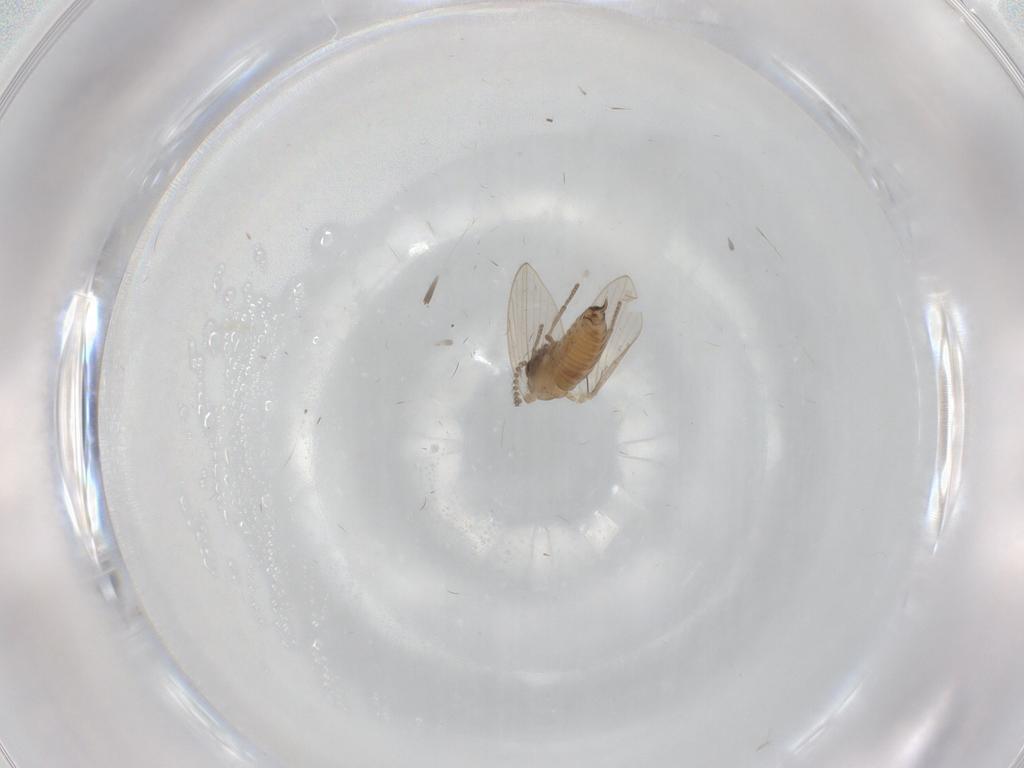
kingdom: Animalia
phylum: Arthropoda
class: Insecta
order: Diptera
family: Psychodidae
